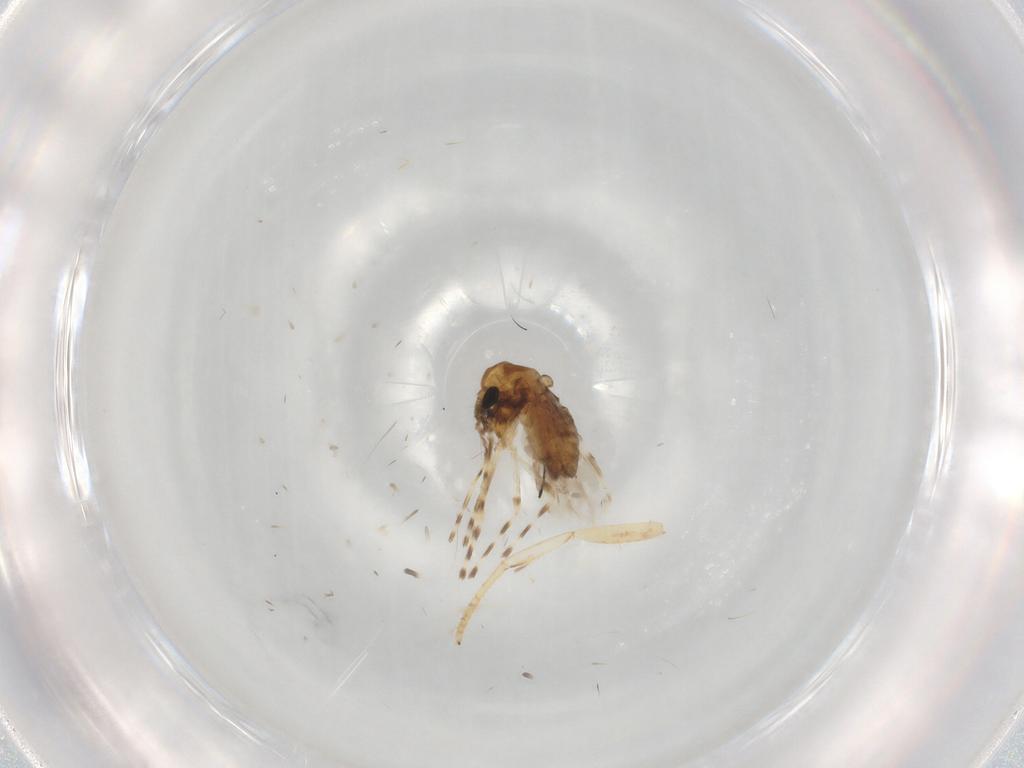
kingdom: Animalia
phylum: Arthropoda
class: Insecta
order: Diptera
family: Chironomidae
